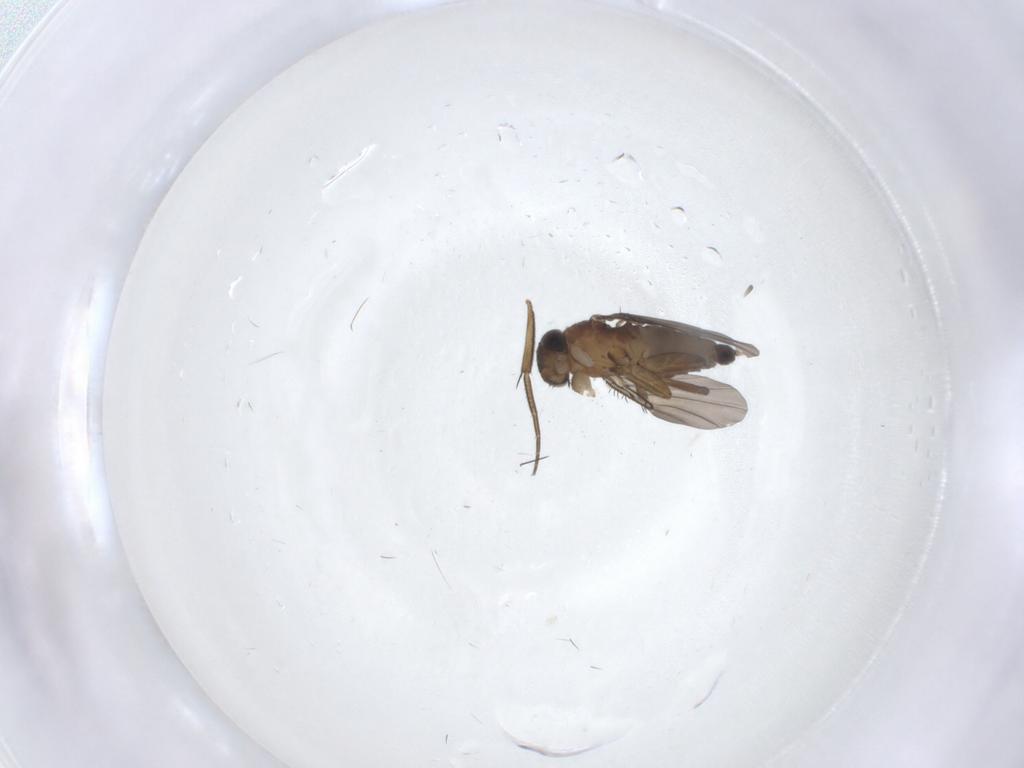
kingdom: Animalia
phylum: Arthropoda
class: Insecta
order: Diptera
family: Phoridae
